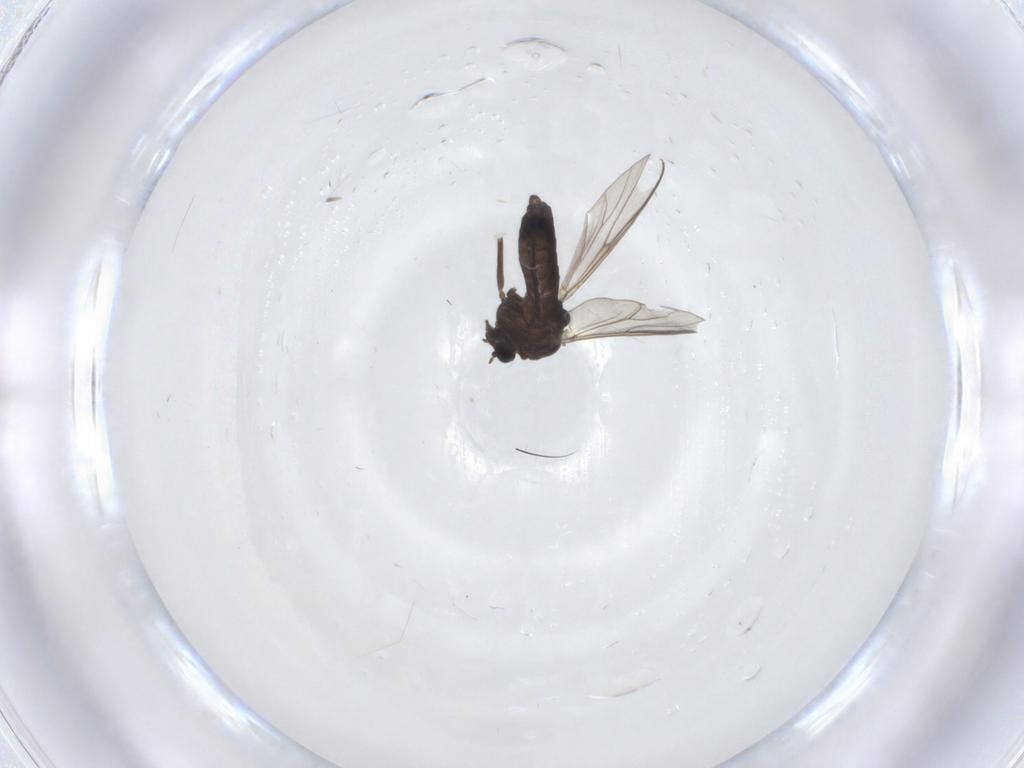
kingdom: Animalia
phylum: Arthropoda
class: Insecta
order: Diptera
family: Chironomidae
